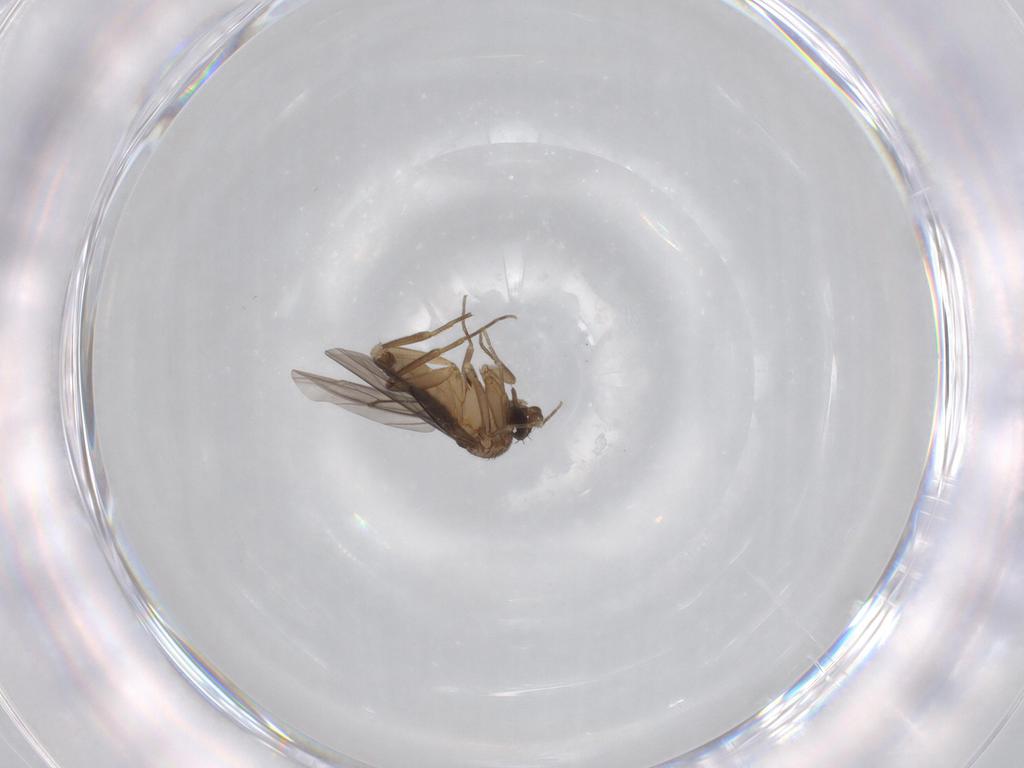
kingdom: Animalia
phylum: Arthropoda
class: Insecta
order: Diptera
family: Phoridae
